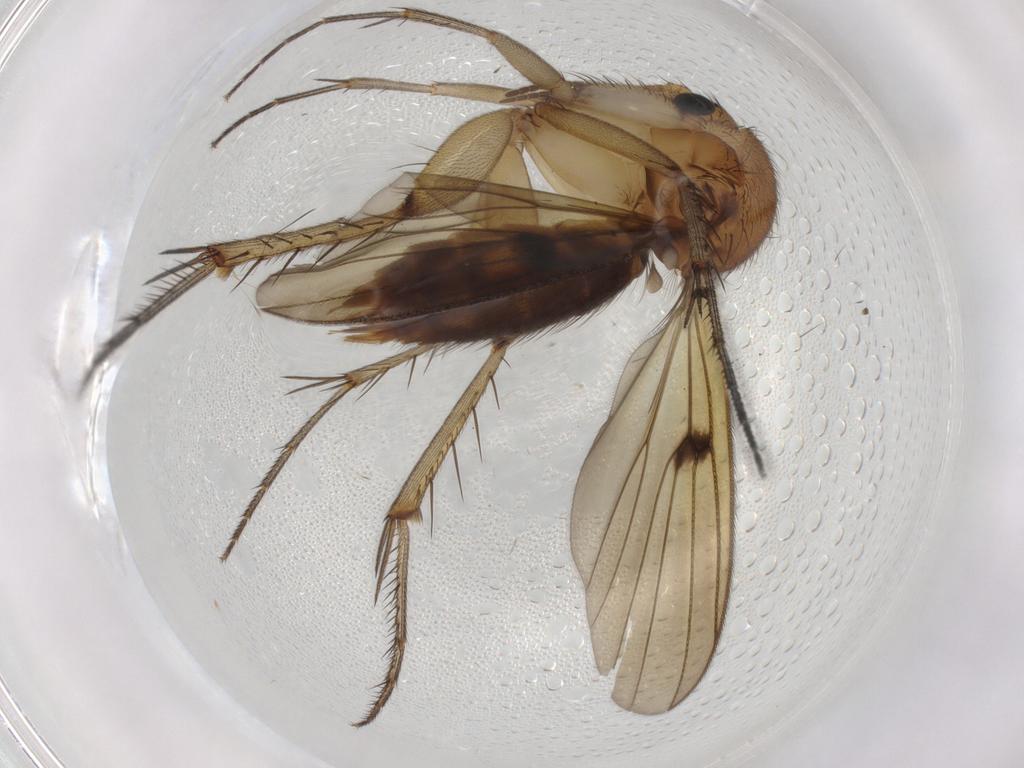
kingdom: Animalia
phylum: Arthropoda
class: Insecta
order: Diptera
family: Mycetophilidae
